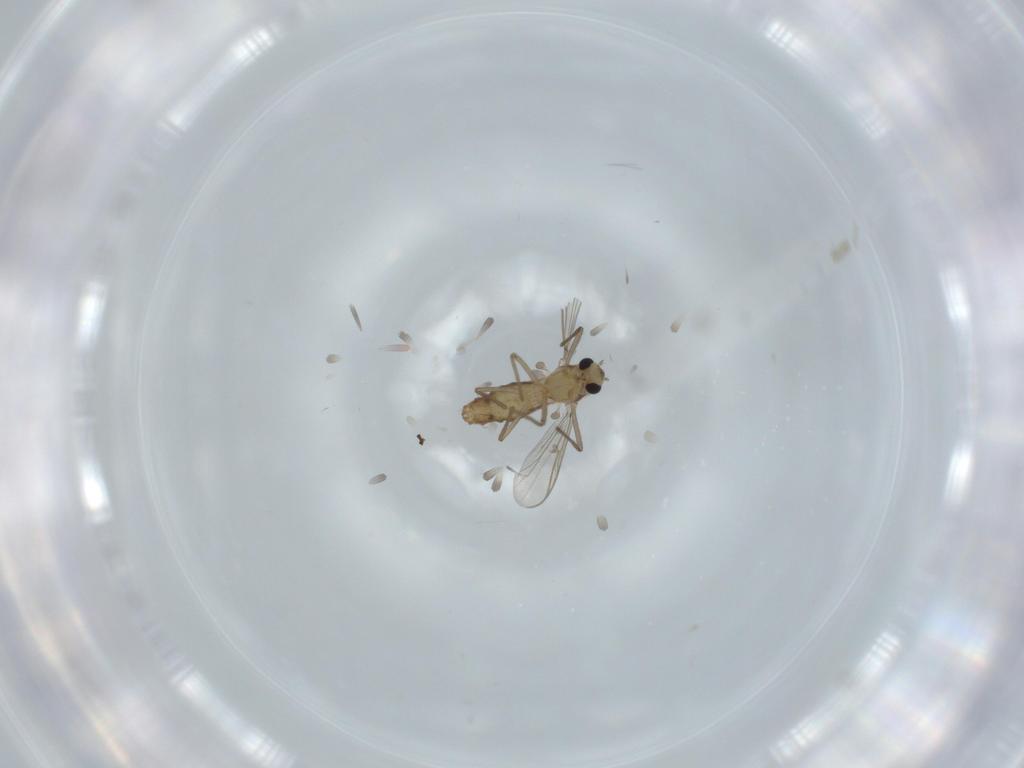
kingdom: Animalia
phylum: Arthropoda
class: Insecta
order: Diptera
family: Chironomidae
